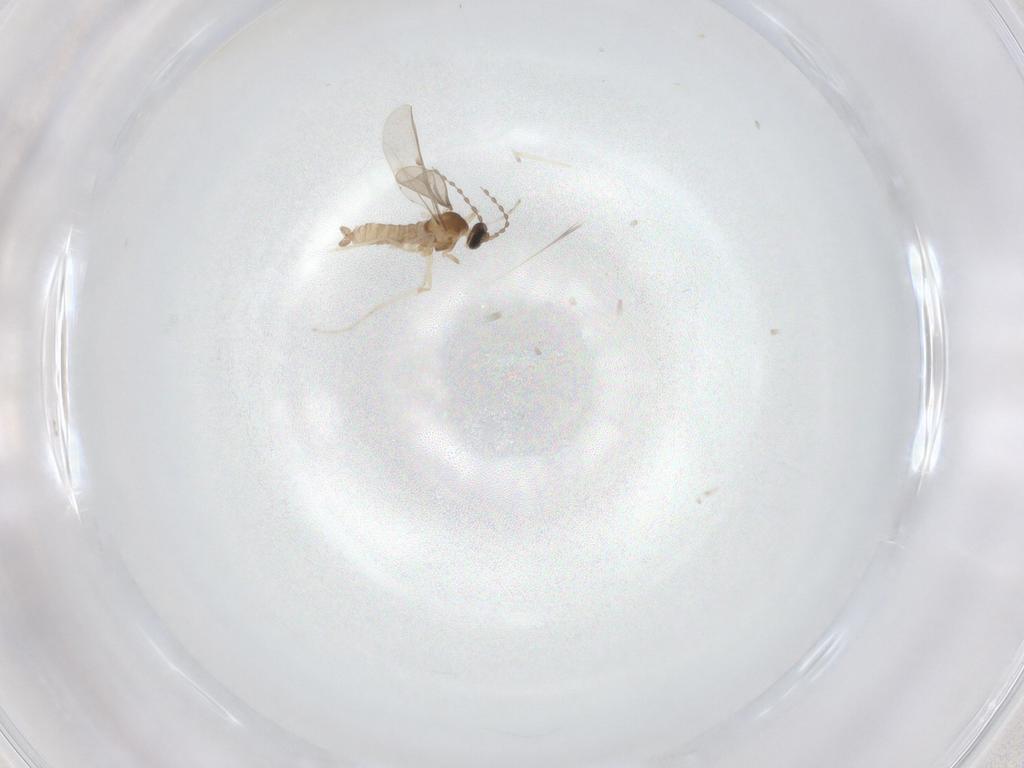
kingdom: Animalia
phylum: Arthropoda
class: Insecta
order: Diptera
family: Cecidomyiidae
